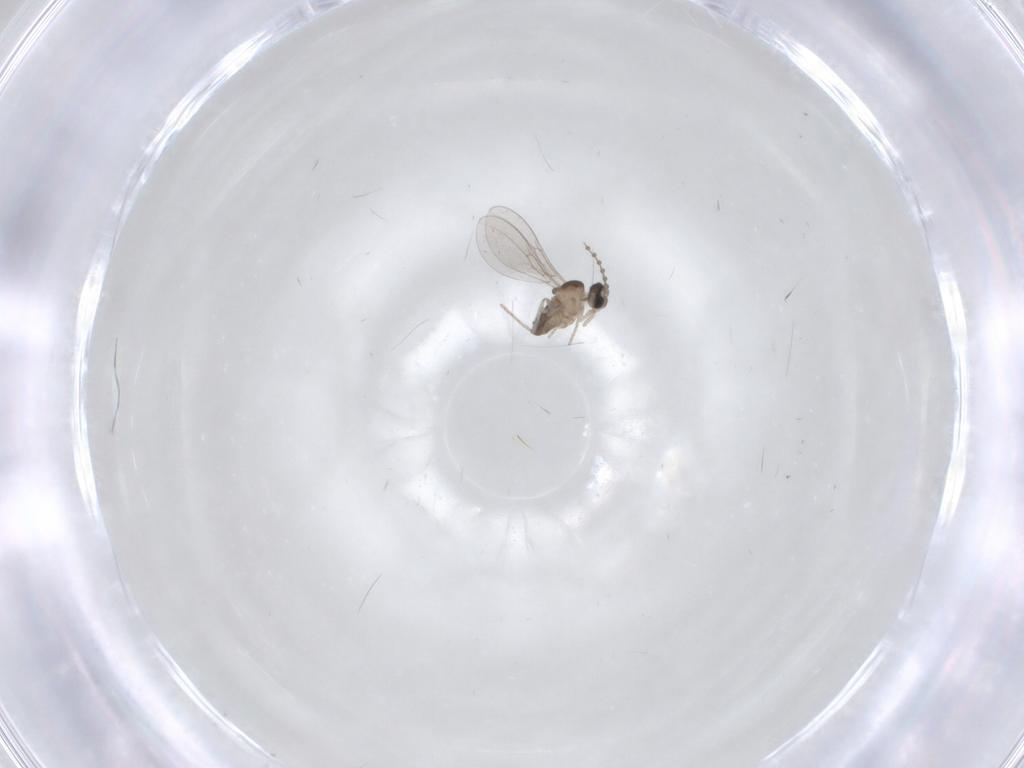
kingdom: Animalia
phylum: Arthropoda
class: Insecta
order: Diptera
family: Cecidomyiidae
